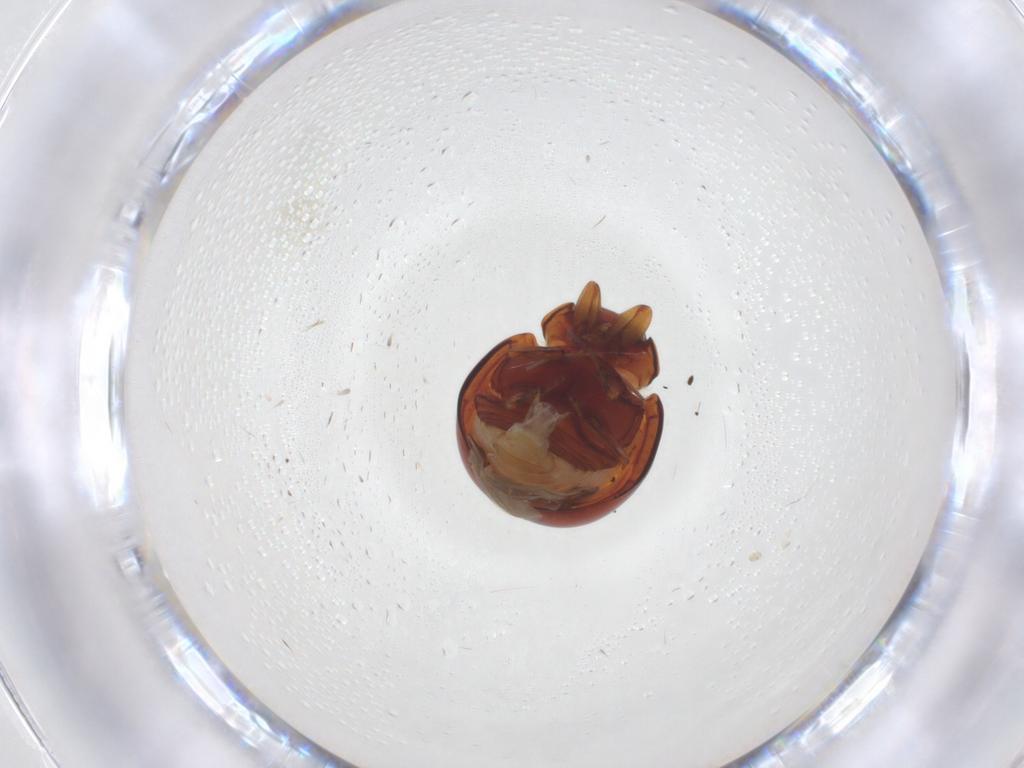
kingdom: Animalia
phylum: Arthropoda
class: Insecta
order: Coleoptera
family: Coccinellidae
